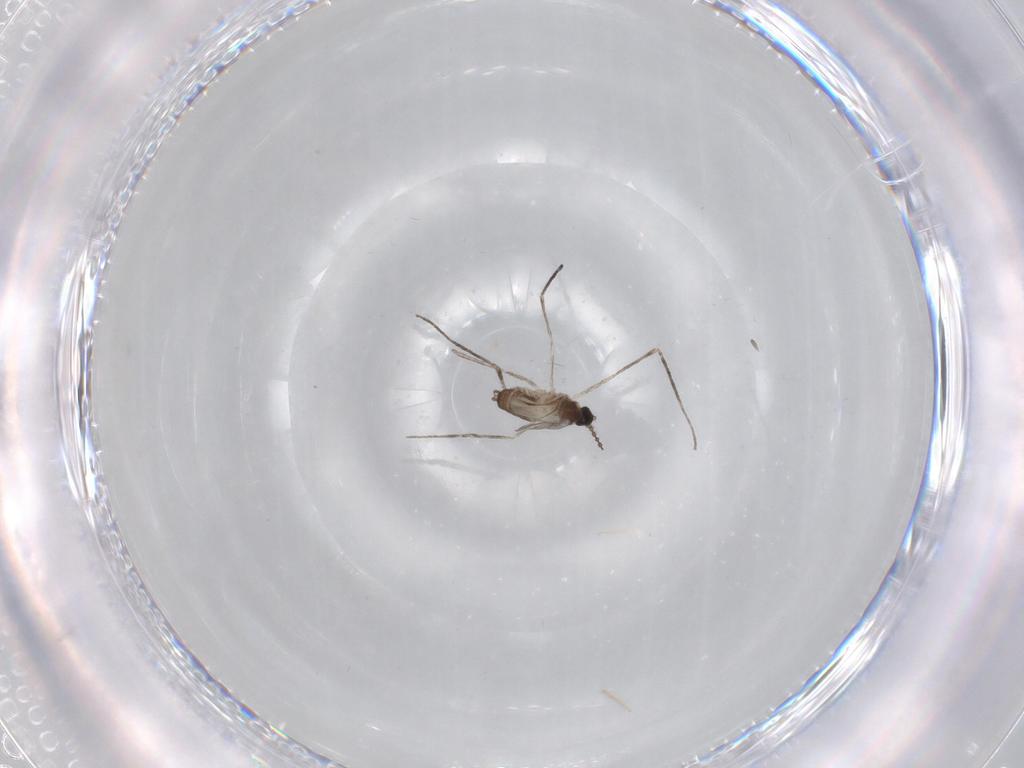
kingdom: Animalia
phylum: Arthropoda
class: Insecta
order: Diptera
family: Cecidomyiidae
